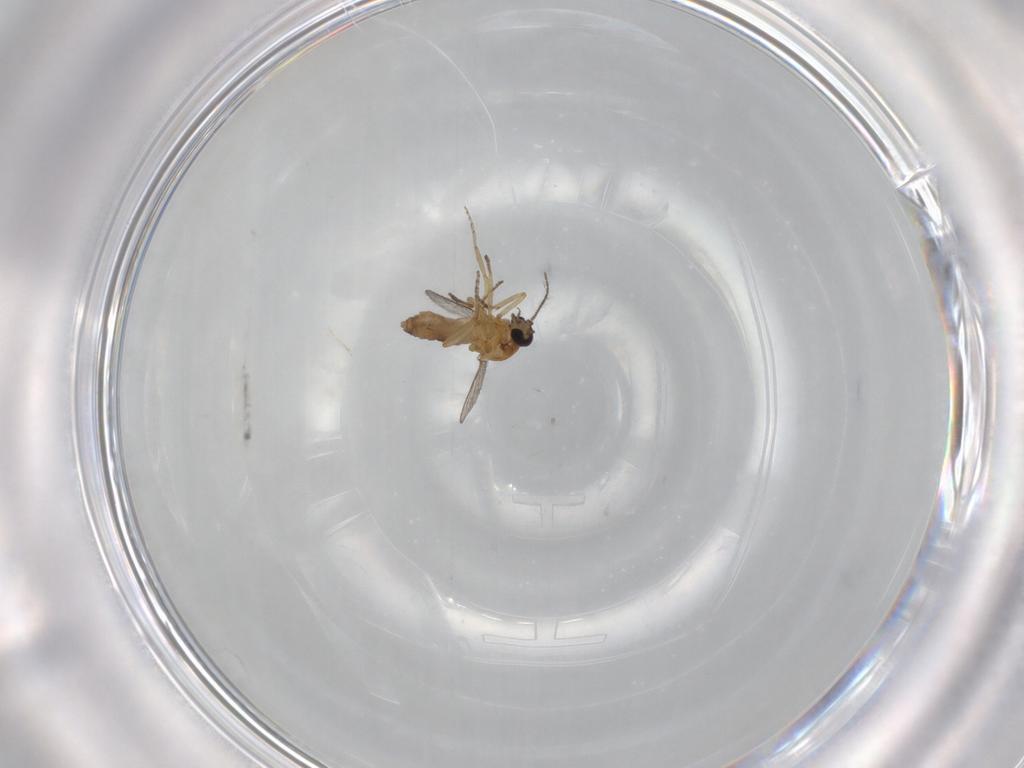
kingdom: Animalia
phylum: Arthropoda
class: Insecta
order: Diptera
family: Ceratopogonidae
